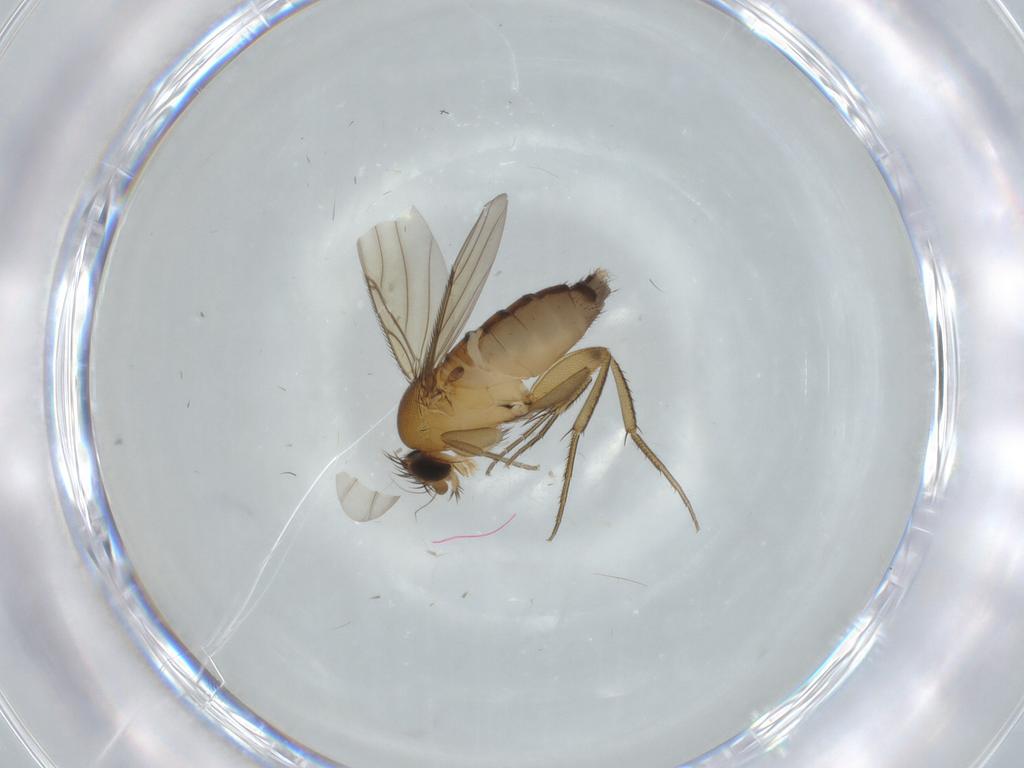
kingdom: Animalia
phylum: Arthropoda
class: Insecta
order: Diptera
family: Phoridae
